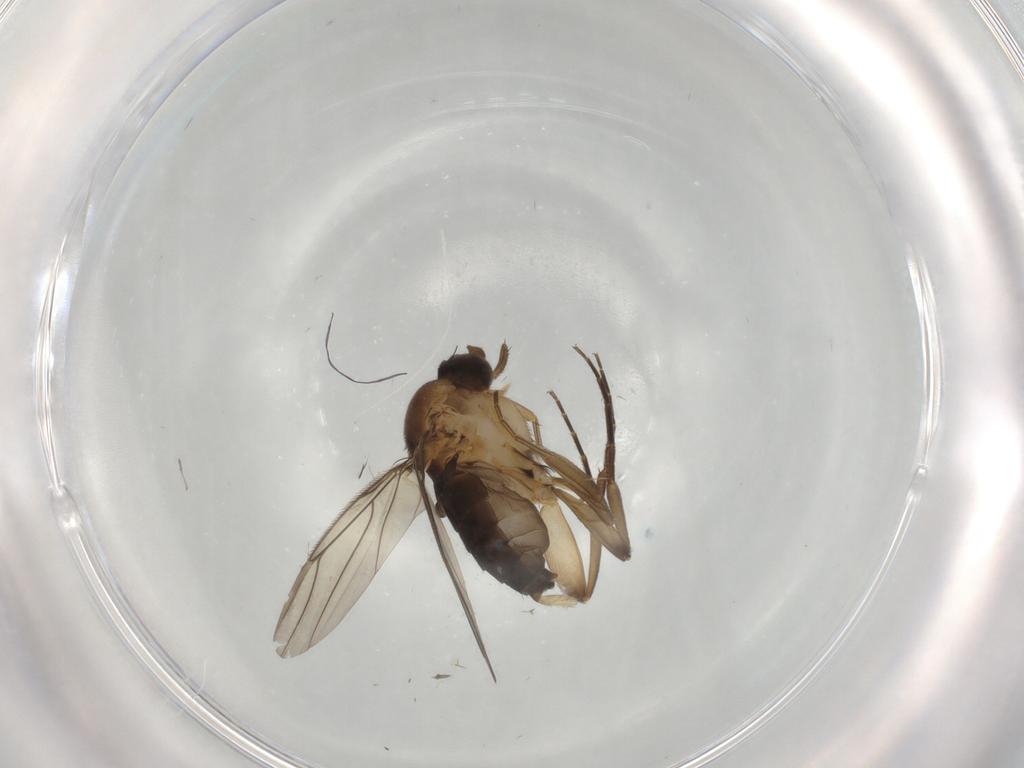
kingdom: Animalia
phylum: Arthropoda
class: Insecta
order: Diptera
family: Phoridae
